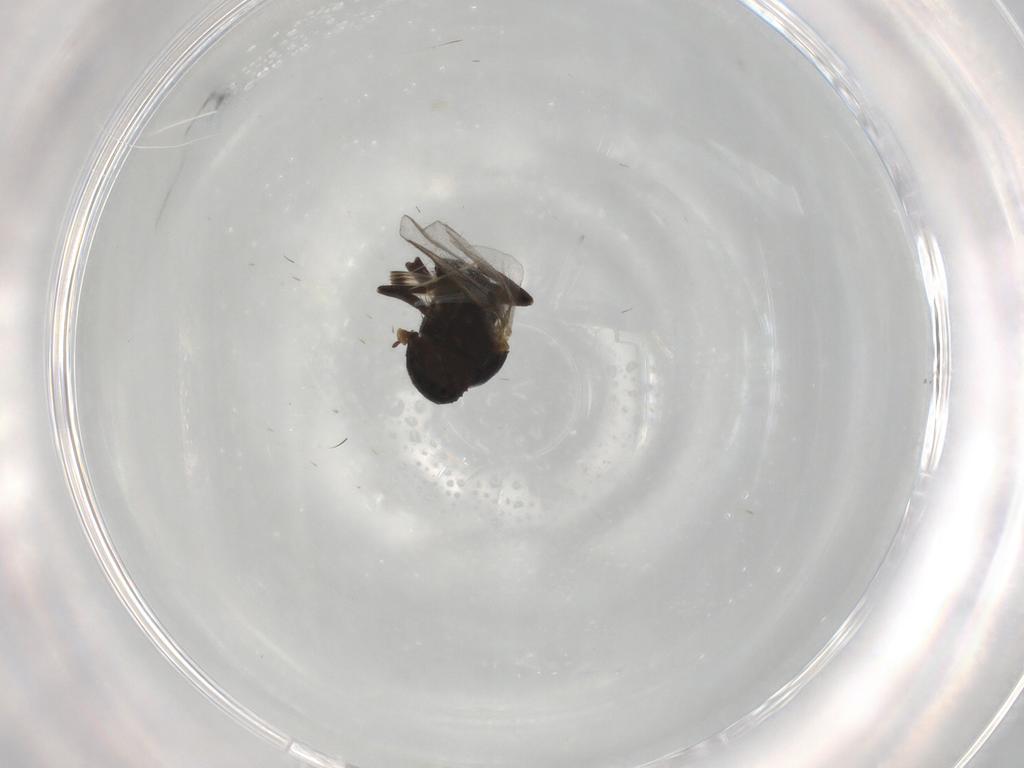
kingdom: Animalia
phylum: Arthropoda
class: Insecta
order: Diptera
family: Sciaridae
